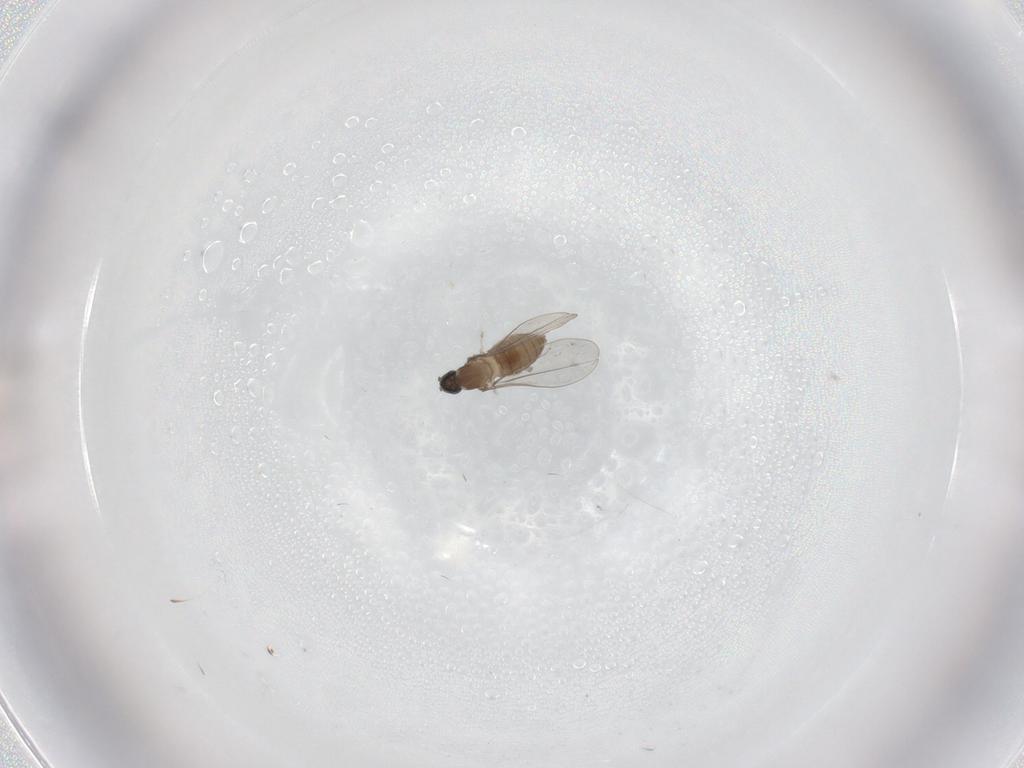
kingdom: Animalia
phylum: Arthropoda
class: Insecta
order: Diptera
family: Cecidomyiidae
